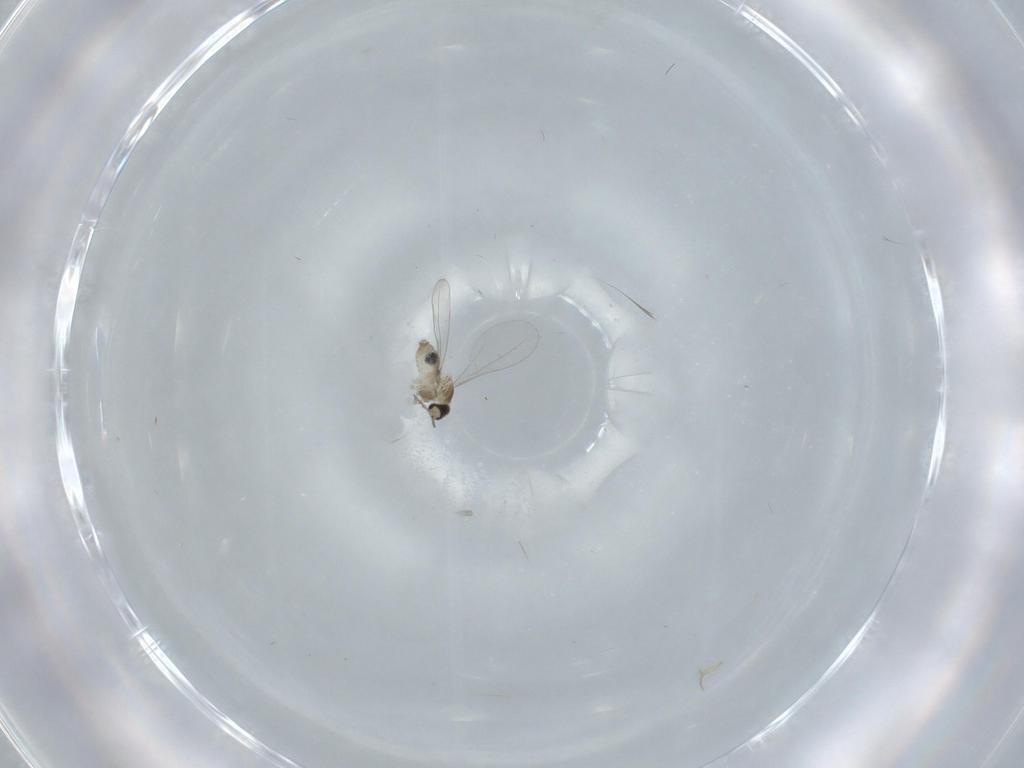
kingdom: Animalia
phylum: Arthropoda
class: Insecta
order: Diptera
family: Cecidomyiidae
